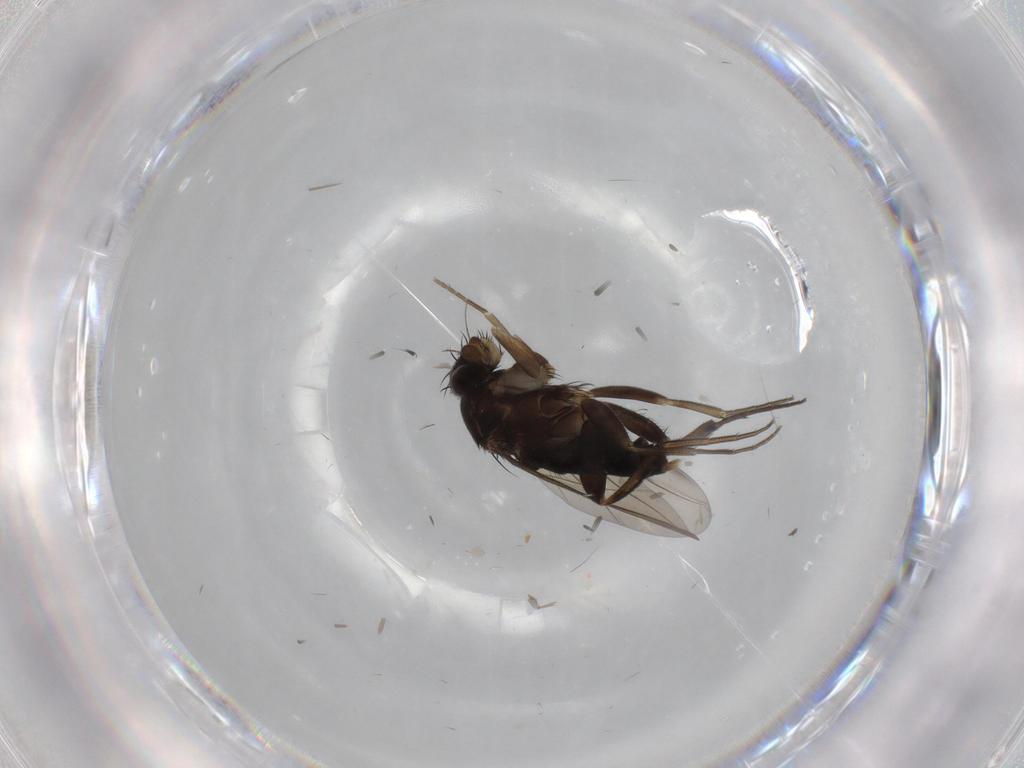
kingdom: Animalia
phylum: Arthropoda
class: Insecta
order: Diptera
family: Phoridae
